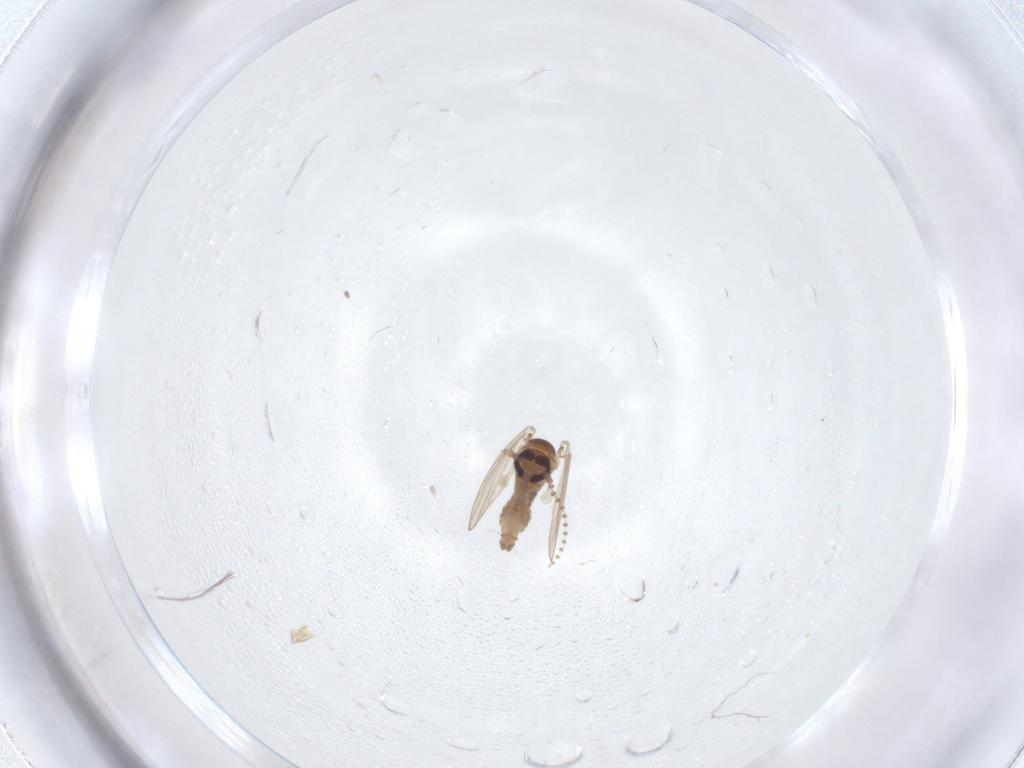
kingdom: Animalia
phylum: Arthropoda
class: Insecta
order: Diptera
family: Psychodidae
